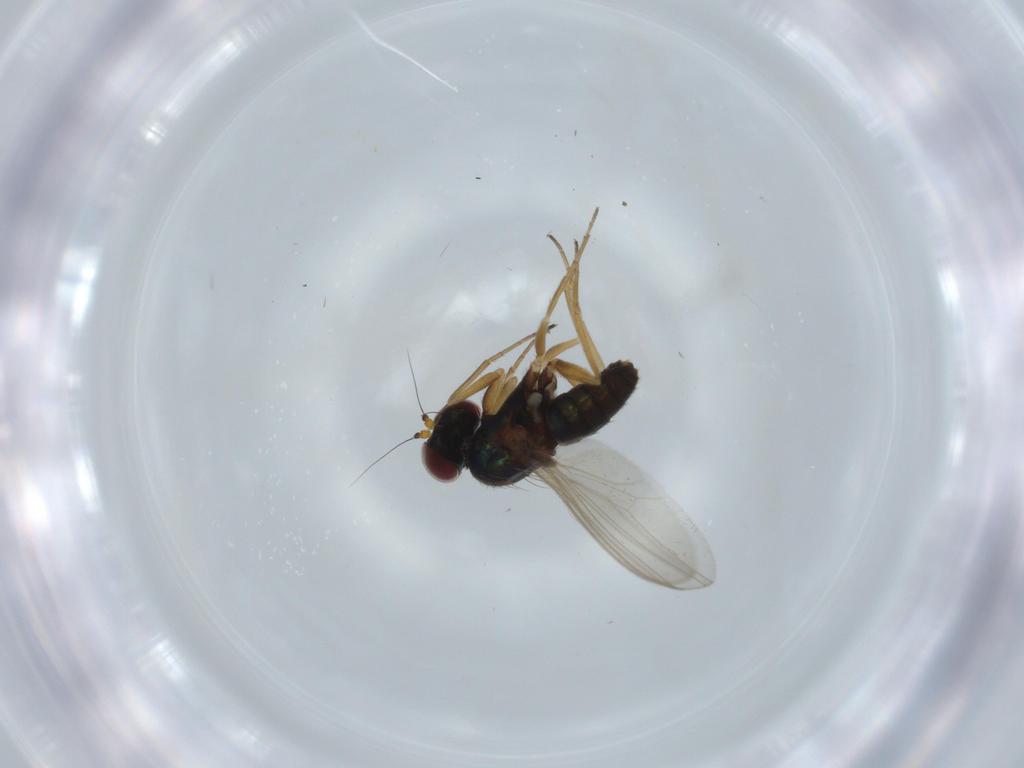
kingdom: Animalia
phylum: Arthropoda
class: Insecta
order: Diptera
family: Dolichopodidae
